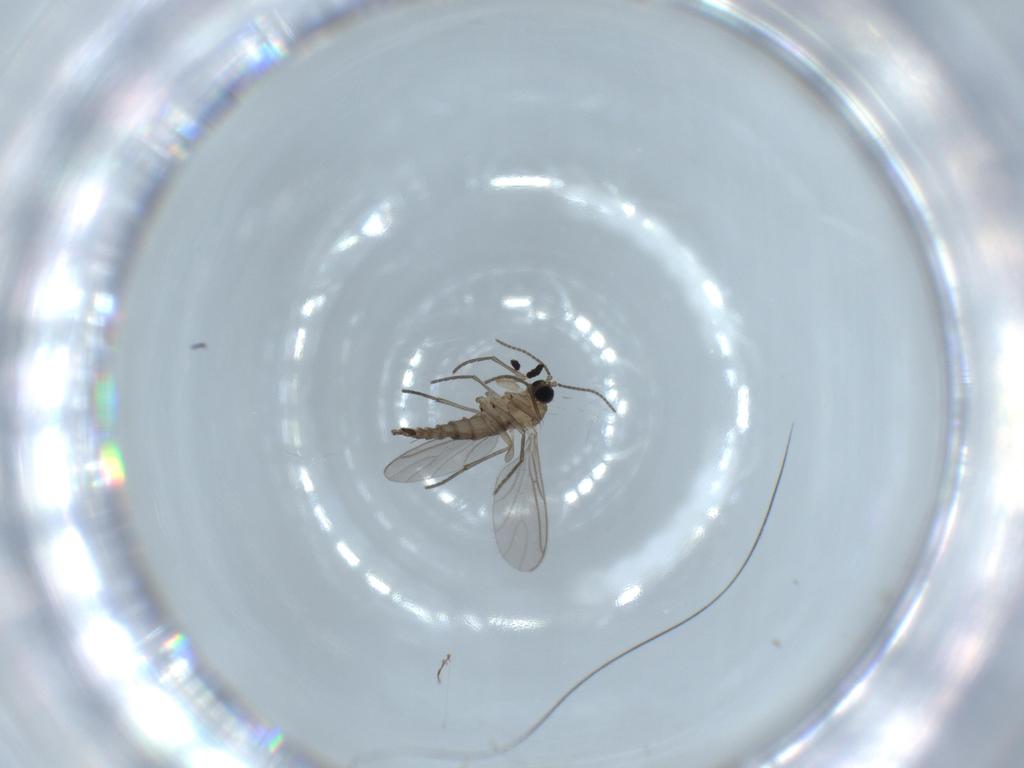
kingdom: Animalia
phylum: Arthropoda
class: Insecta
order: Diptera
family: Sciaridae
